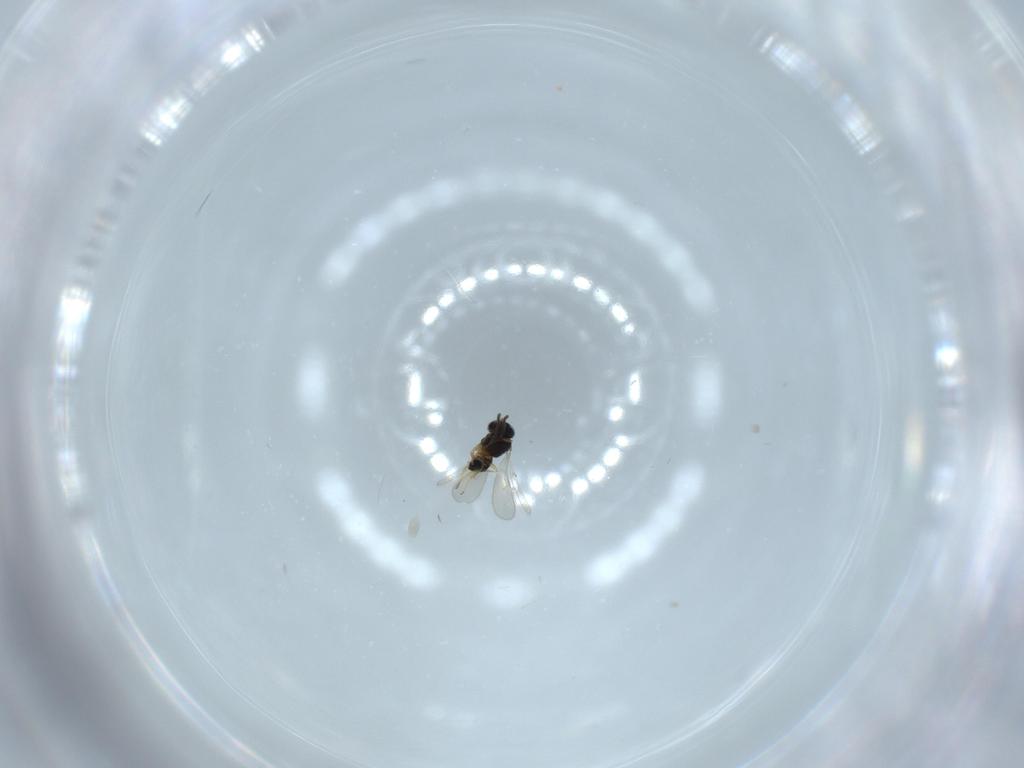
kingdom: Animalia
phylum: Arthropoda
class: Insecta
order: Hymenoptera
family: Scelionidae
